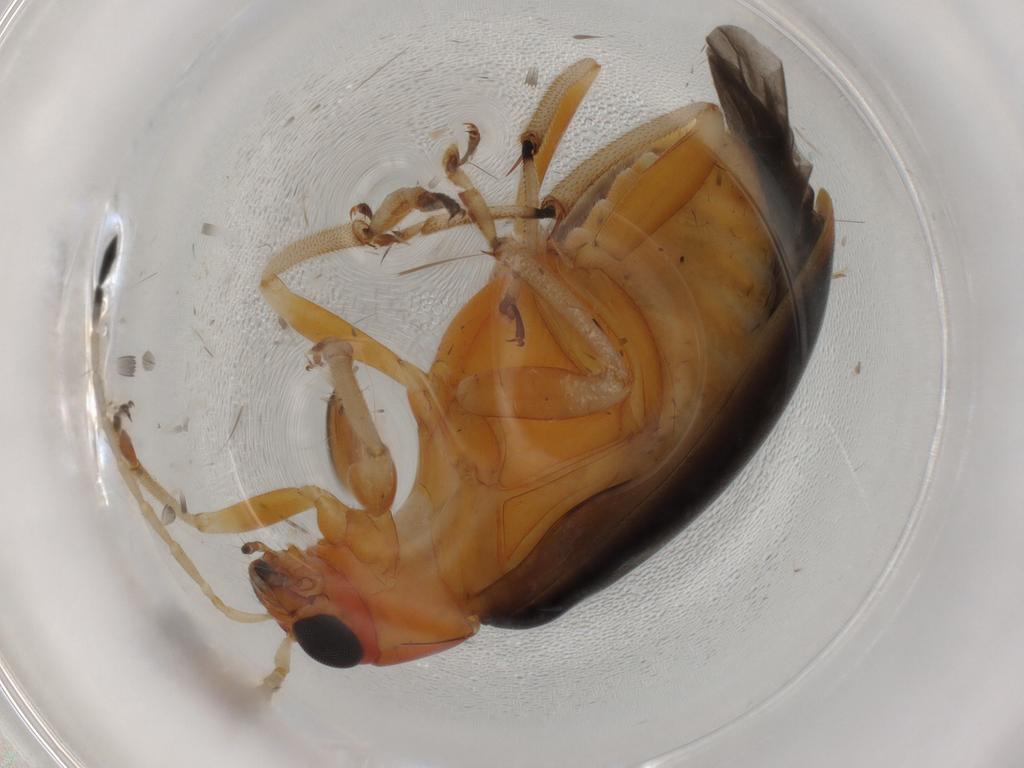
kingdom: Animalia
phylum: Arthropoda
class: Insecta
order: Coleoptera
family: Chrysomelidae
